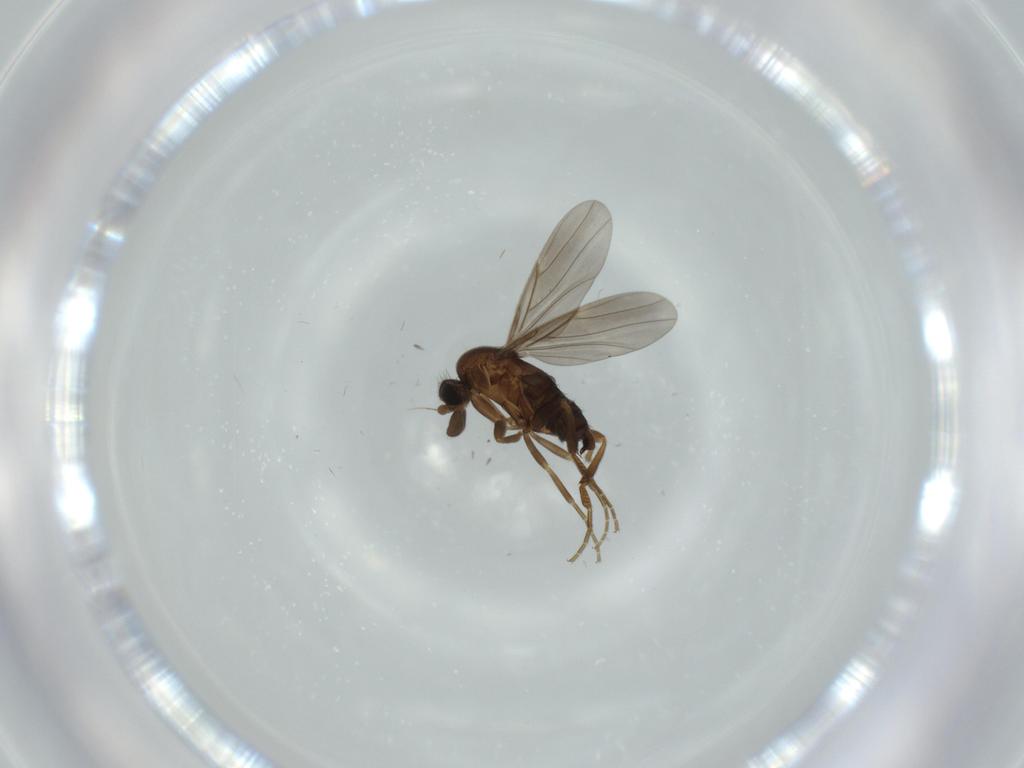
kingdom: Animalia
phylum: Arthropoda
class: Insecta
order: Diptera
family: Phoridae
